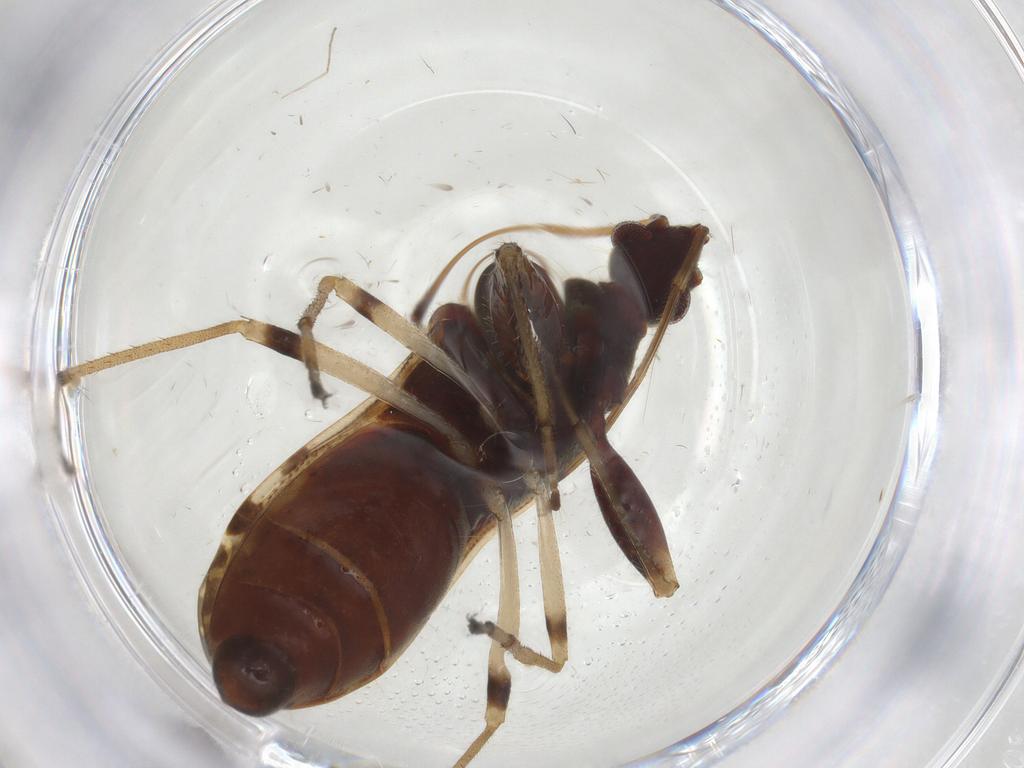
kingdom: Animalia
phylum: Arthropoda
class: Insecta
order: Hemiptera
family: Rhyparochromidae
